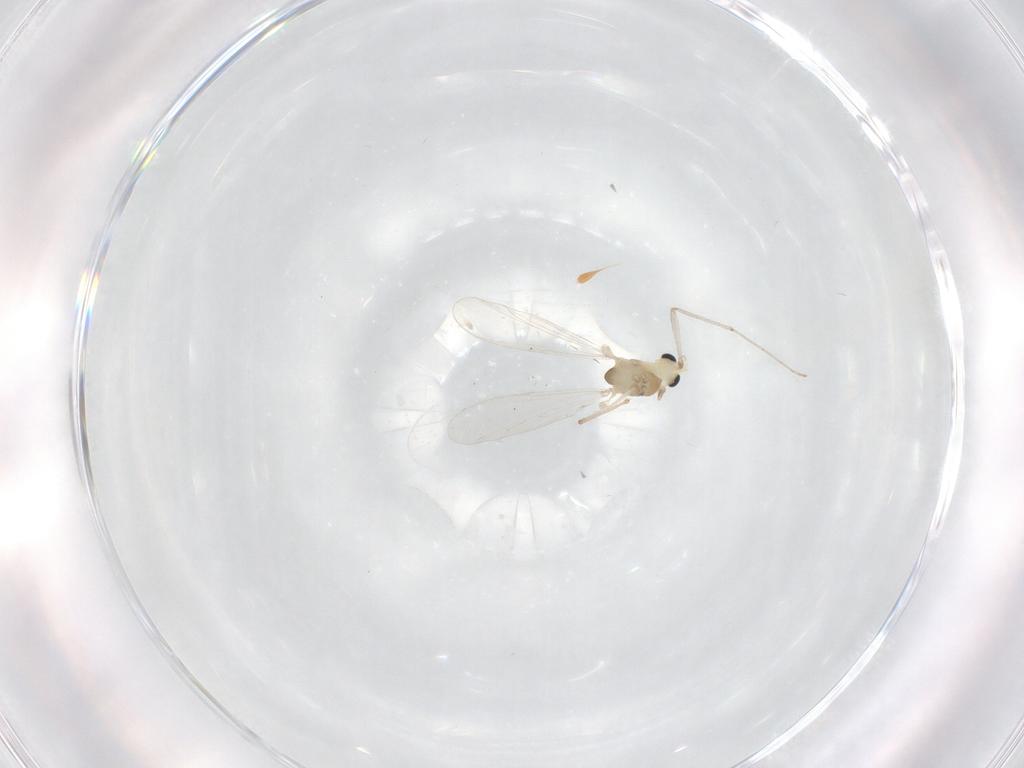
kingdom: Animalia
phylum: Arthropoda
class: Insecta
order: Diptera
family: Chironomidae
